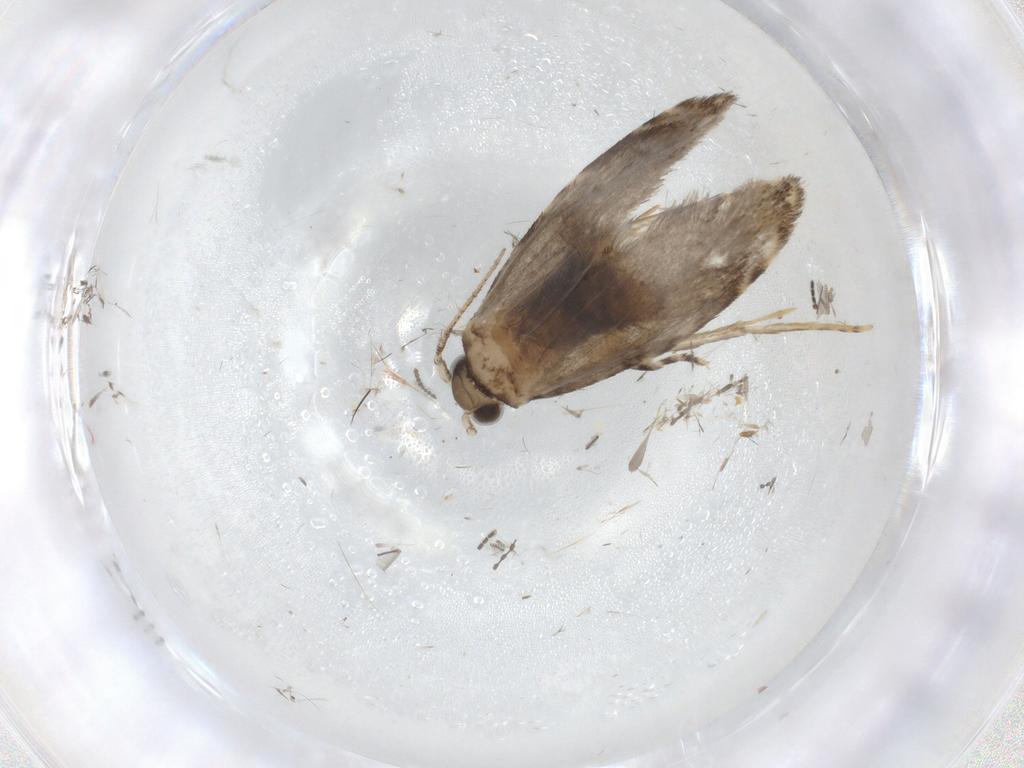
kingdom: Animalia
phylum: Arthropoda
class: Insecta
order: Lepidoptera
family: Tineidae
